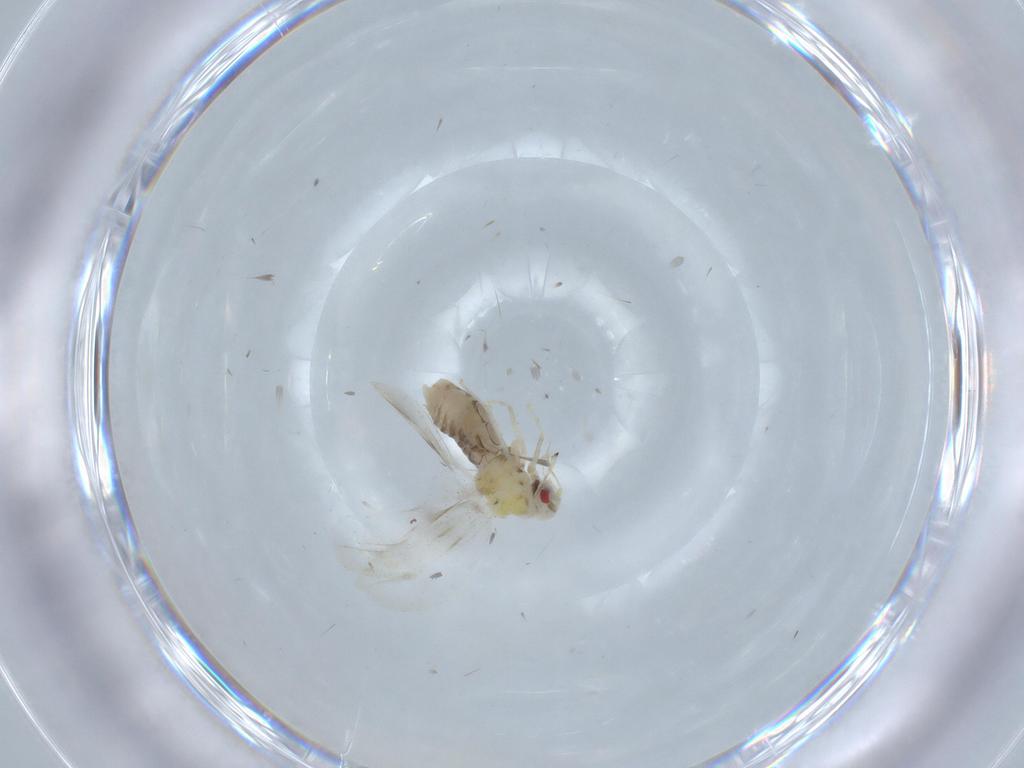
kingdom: Animalia
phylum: Arthropoda
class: Insecta
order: Hemiptera
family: Aleyrodidae
